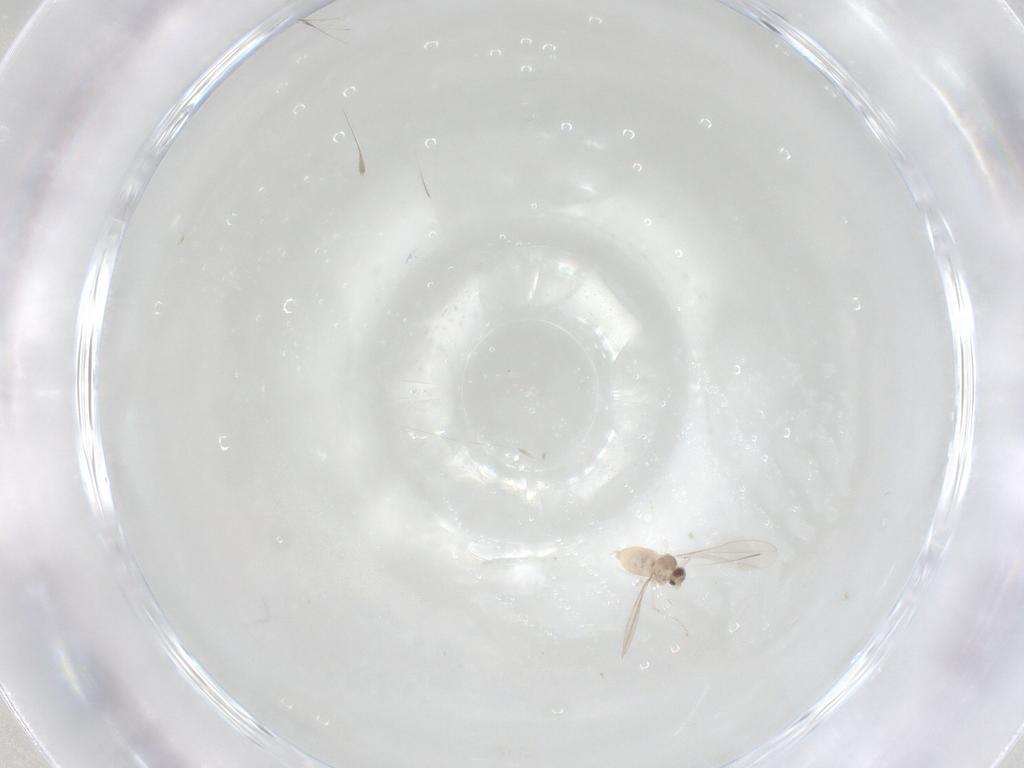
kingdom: Animalia
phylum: Arthropoda
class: Insecta
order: Diptera
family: Cecidomyiidae
